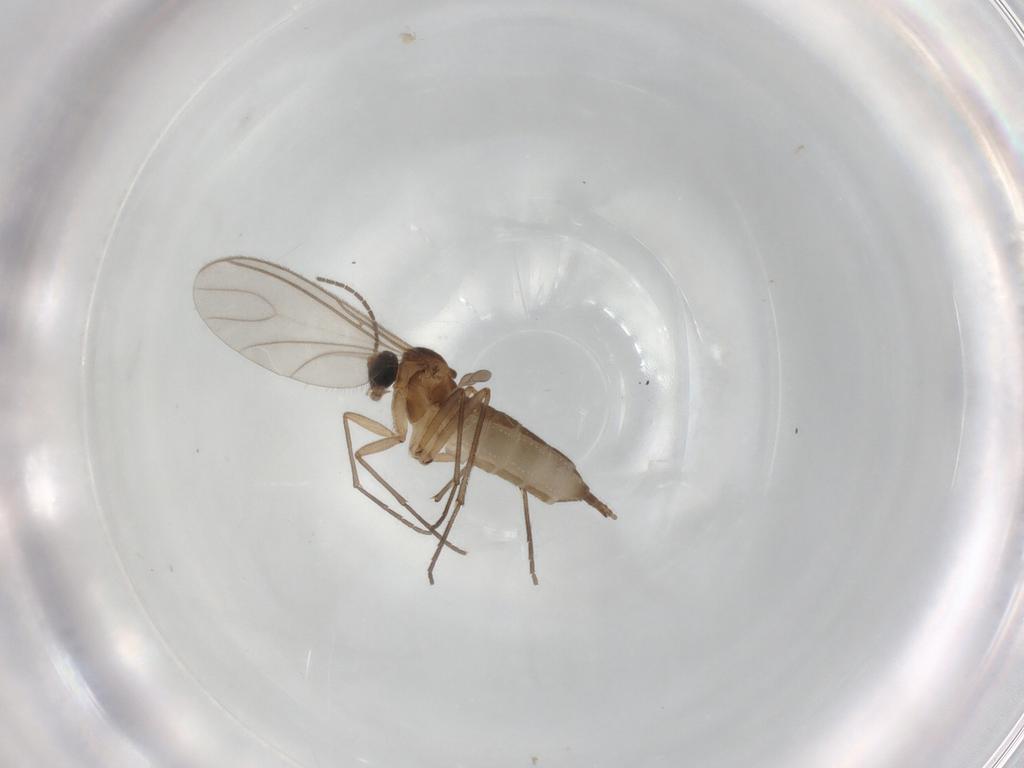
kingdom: Animalia
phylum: Arthropoda
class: Insecta
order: Diptera
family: Sciaridae
